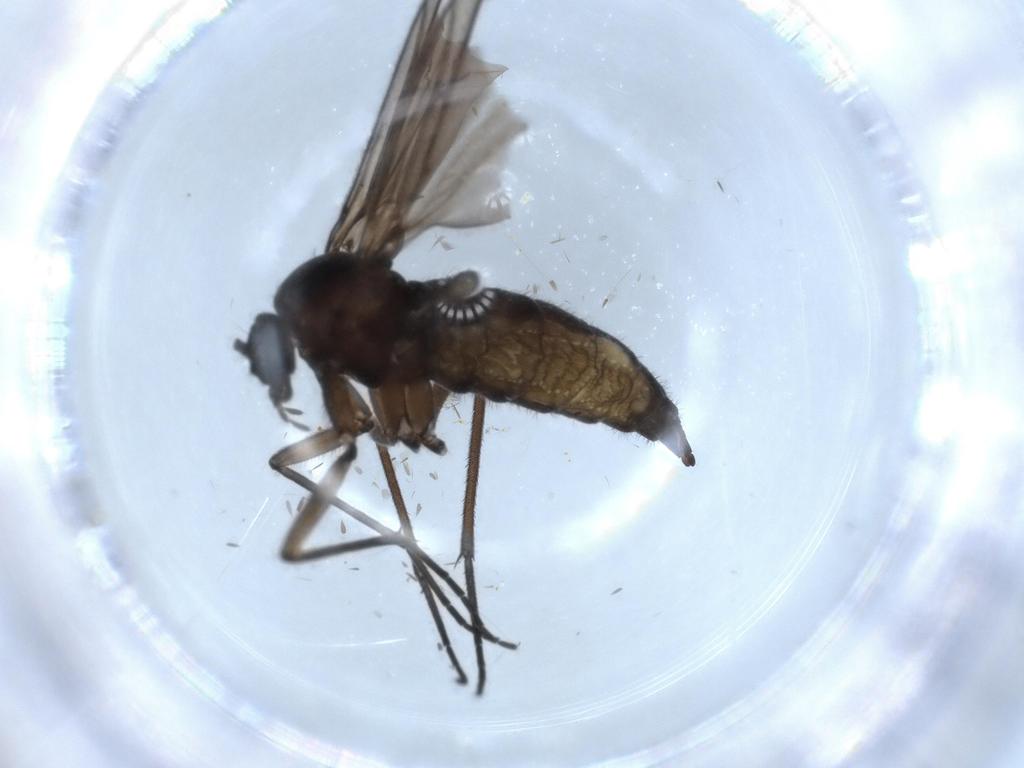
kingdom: Animalia
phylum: Arthropoda
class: Insecta
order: Diptera
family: Sciaridae
